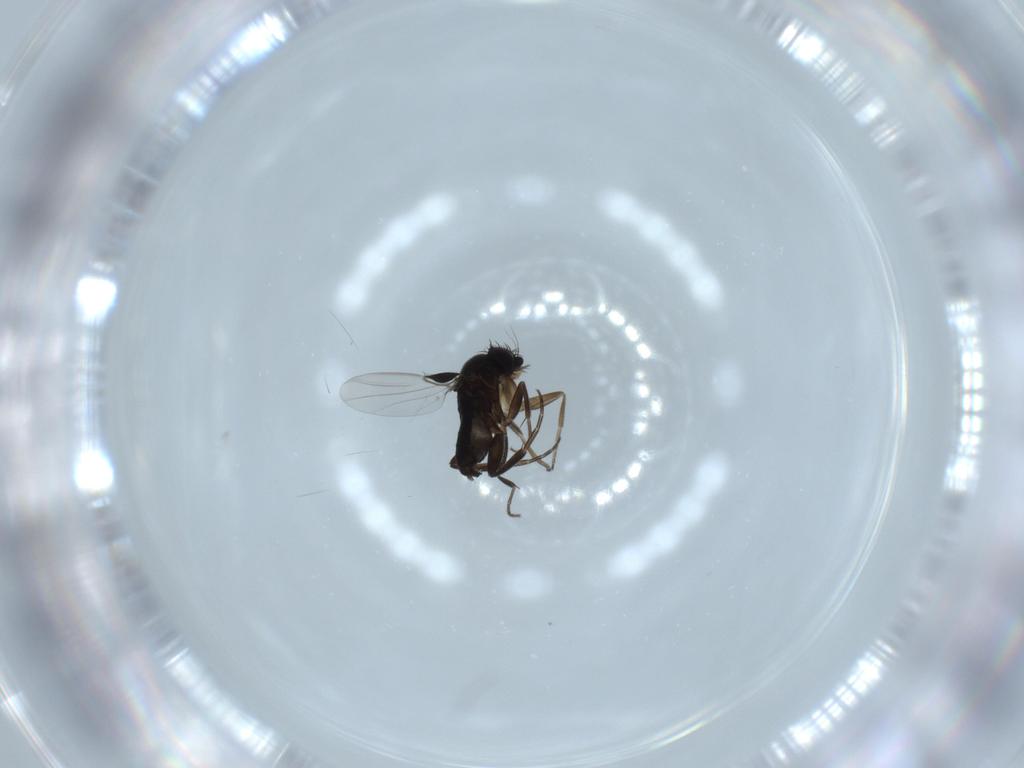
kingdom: Animalia
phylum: Arthropoda
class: Insecta
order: Diptera
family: Phoridae
